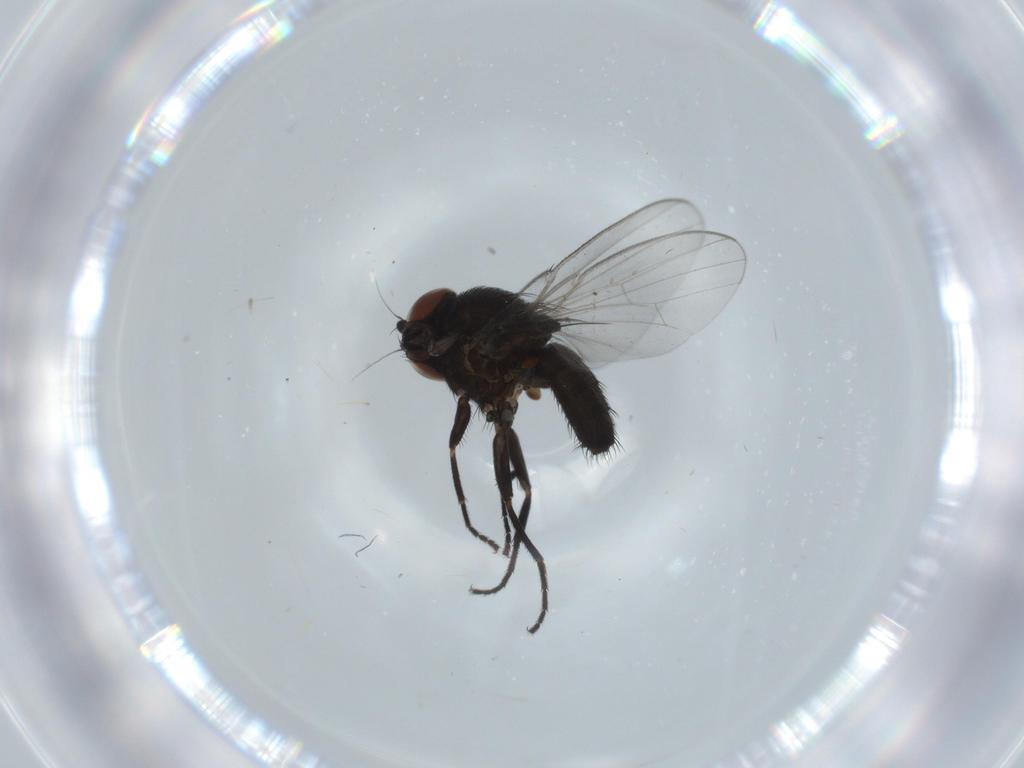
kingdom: Animalia
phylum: Arthropoda
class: Insecta
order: Diptera
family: Milichiidae
